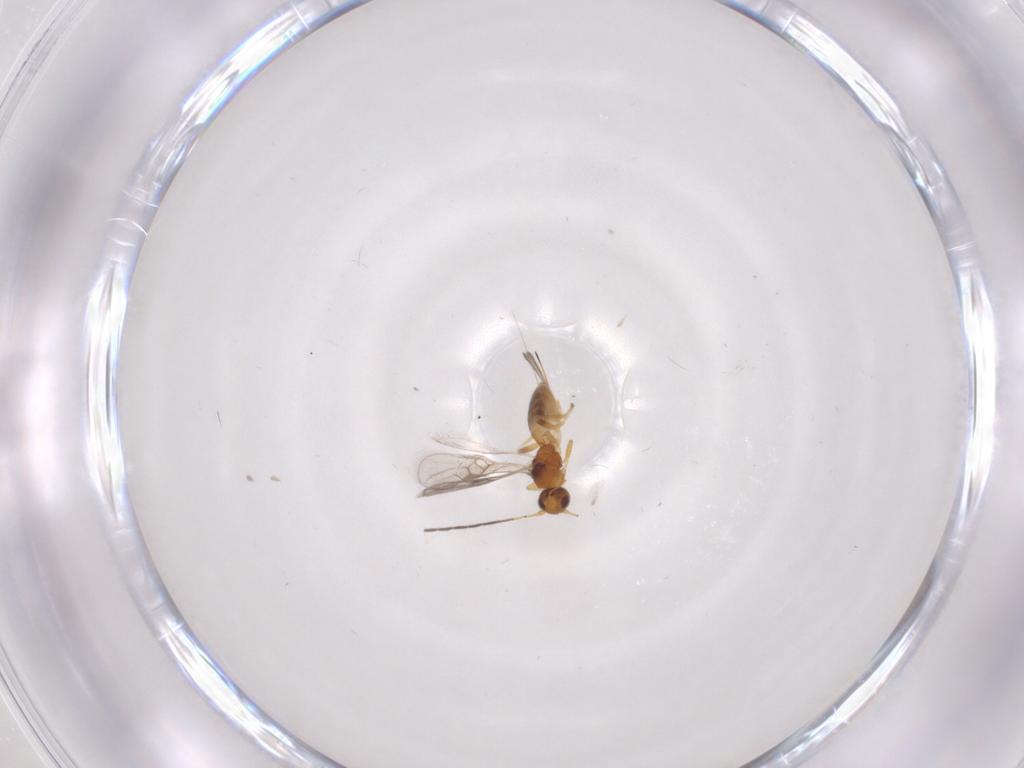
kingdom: Animalia
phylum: Arthropoda
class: Insecta
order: Hymenoptera
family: Braconidae
